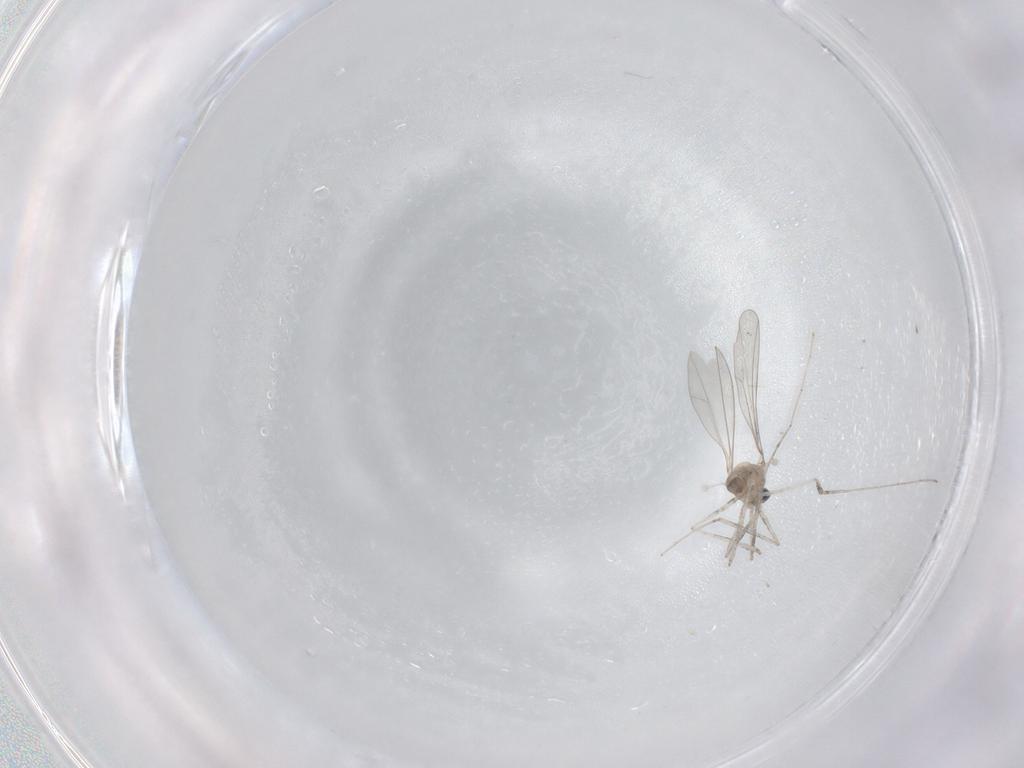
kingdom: Animalia
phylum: Arthropoda
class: Insecta
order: Diptera
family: Cecidomyiidae
